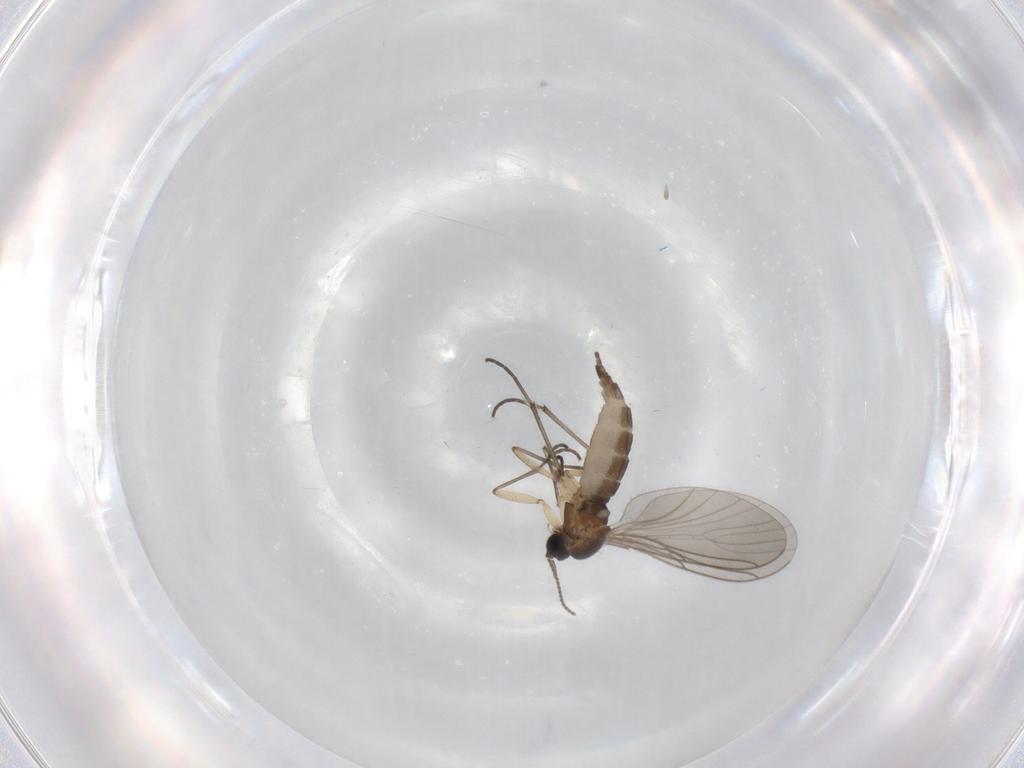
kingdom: Animalia
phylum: Arthropoda
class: Insecta
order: Diptera
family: Sciaridae
